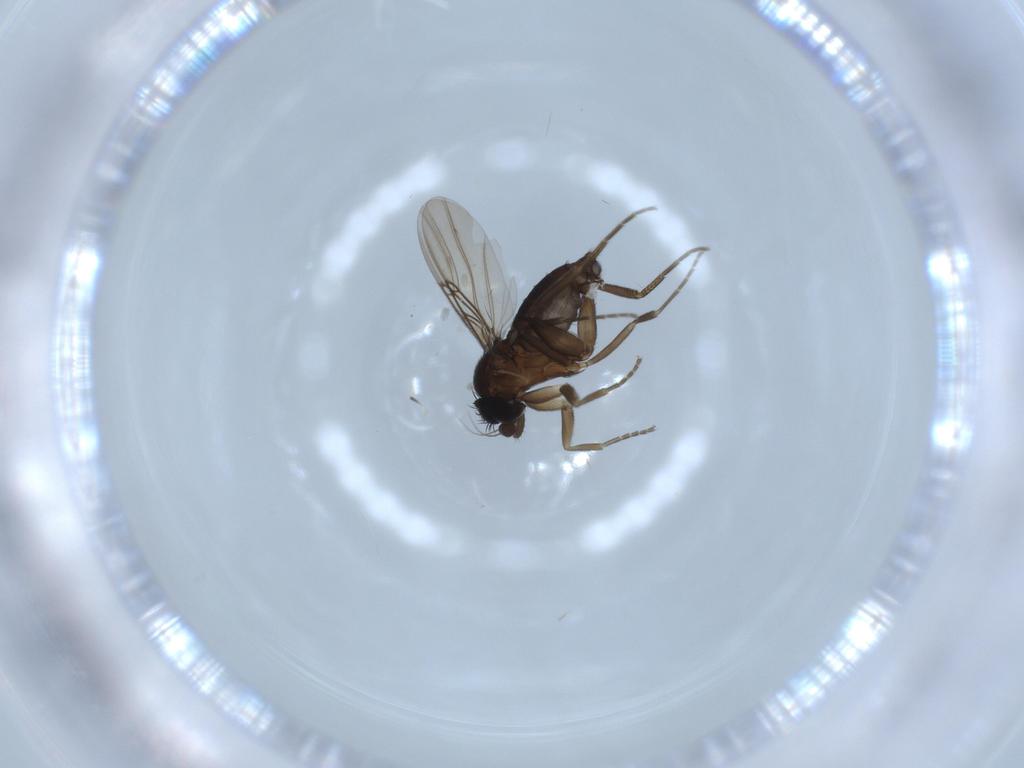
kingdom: Animalia
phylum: Arthropoda
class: Insecta
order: Diptera
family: Phoridae
